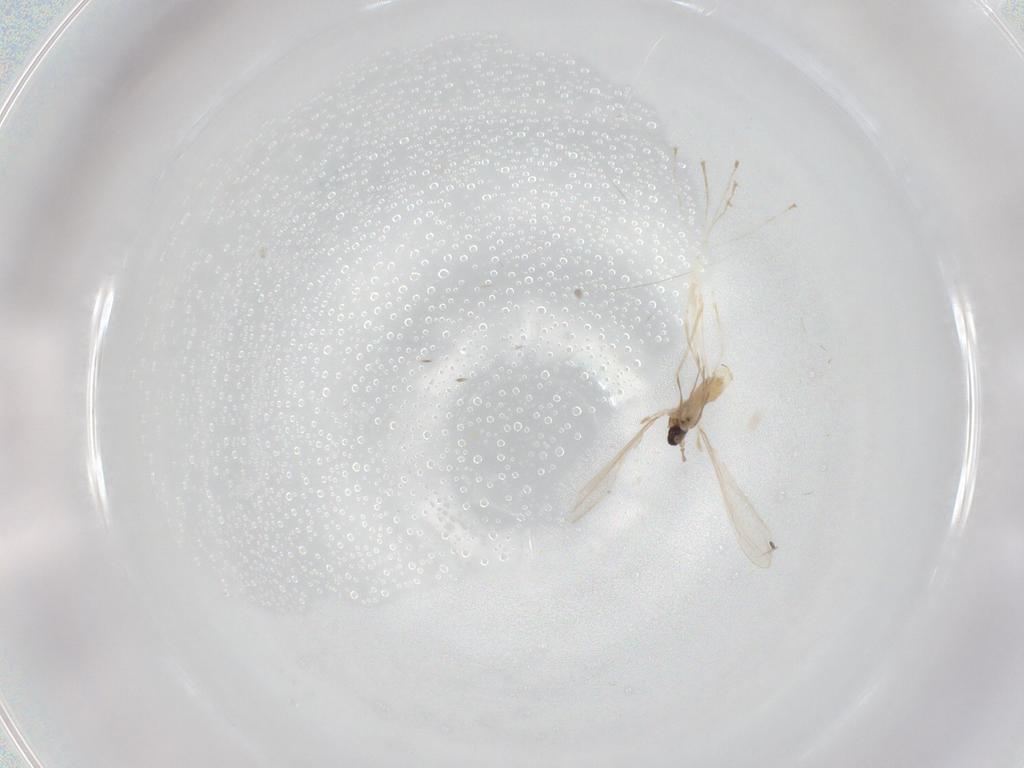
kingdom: Animalia
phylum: Arthropoda
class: Insecta
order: Diptera
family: Cecidomyiidae
